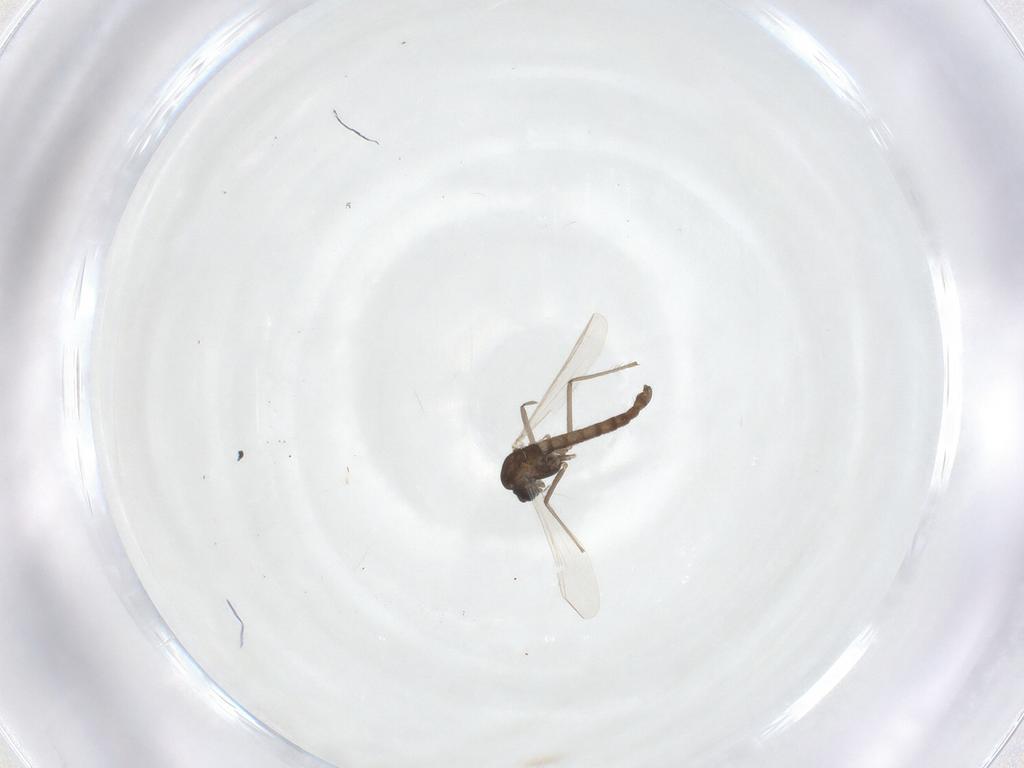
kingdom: Animalia
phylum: Arthropoda
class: Insecta
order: Diptera
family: Chironomidae
